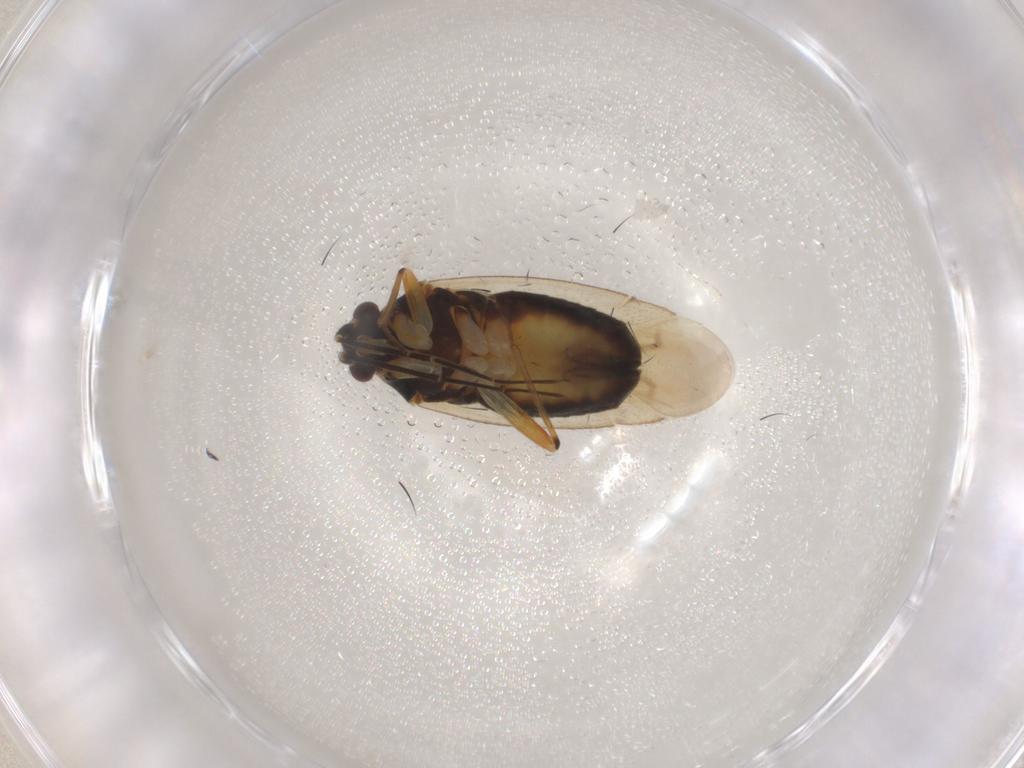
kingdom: Animalia
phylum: Arthropoda
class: Insecta
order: Hemiptera
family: Miridae
